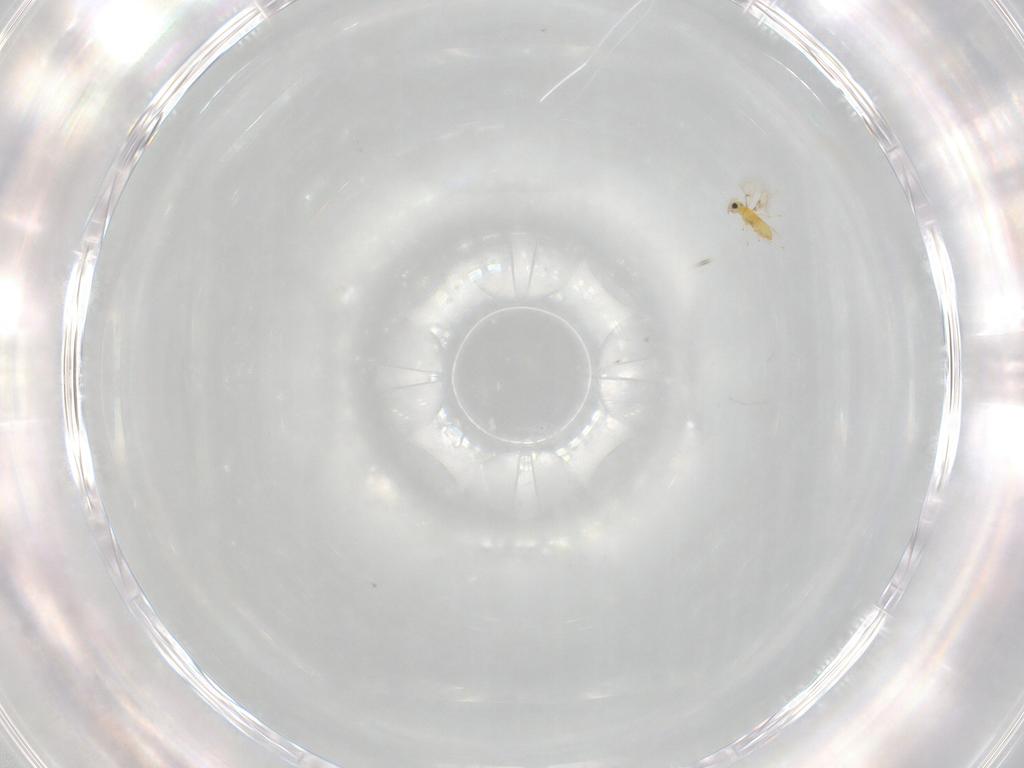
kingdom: Animalia
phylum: Arthropoda
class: Insecta
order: Hymenoptera
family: Trichogrammatidae
